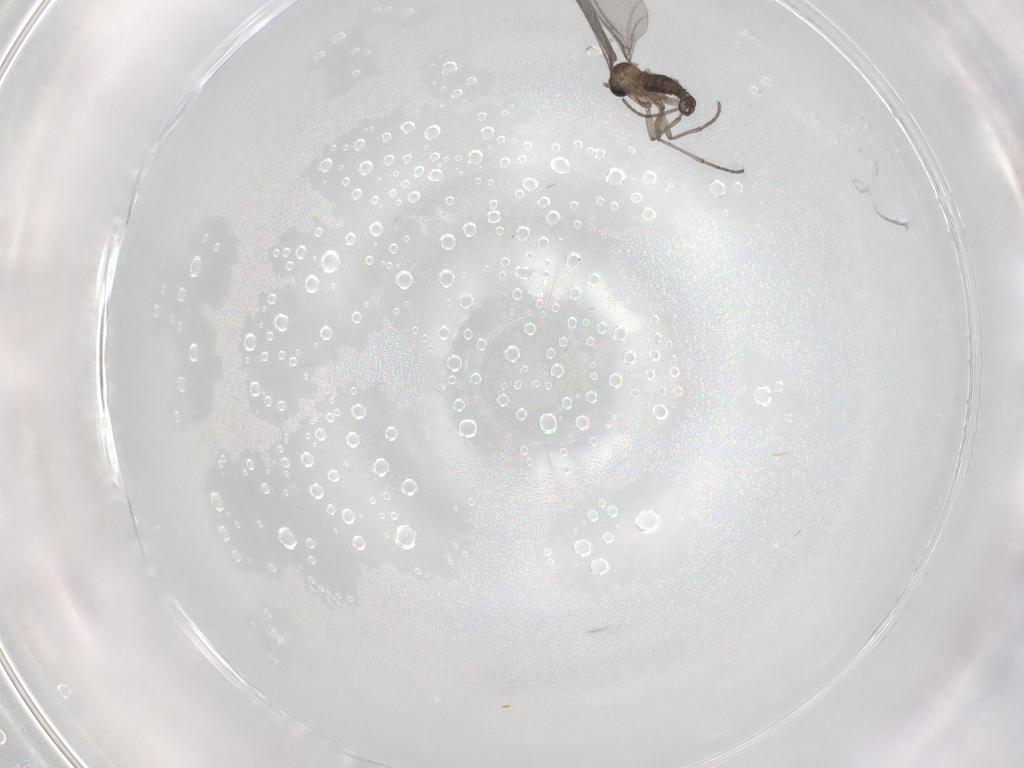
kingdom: Animalia
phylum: Arthropoda
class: Insecta
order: Diptera
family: Sciaridae
